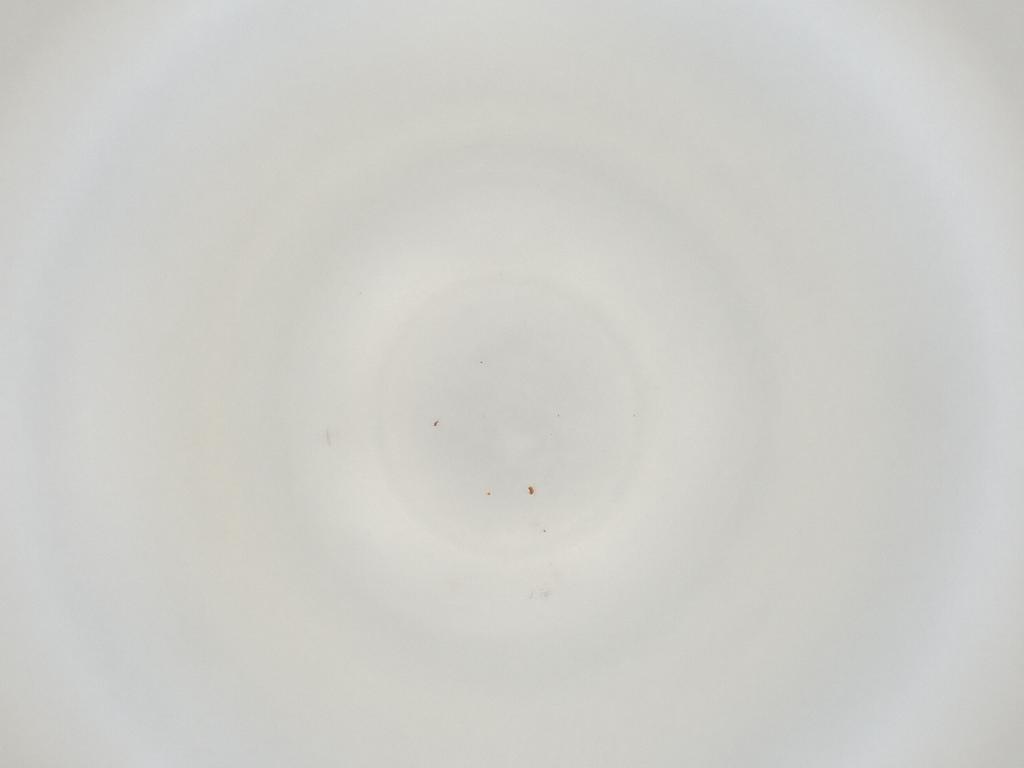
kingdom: Animalia
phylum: Arthropoda
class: Insecta
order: Diptera
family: Cecidomyiidae
